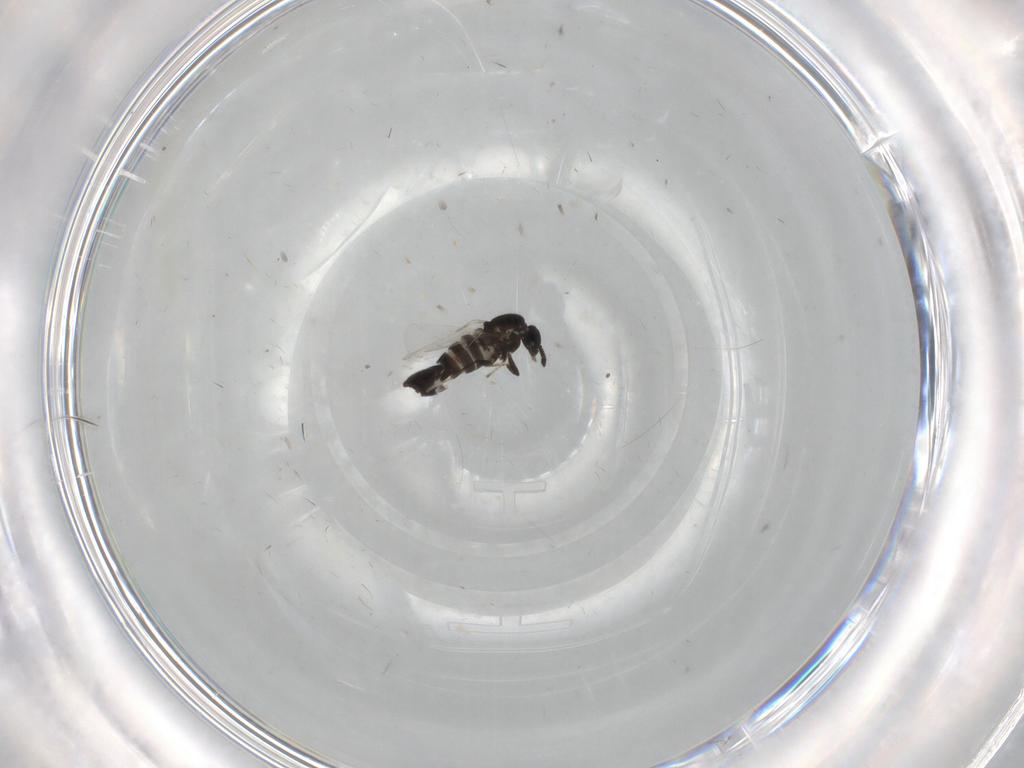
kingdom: Animalia
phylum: Arthropoda
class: Insecta
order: Diptera
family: Scatopsidae
